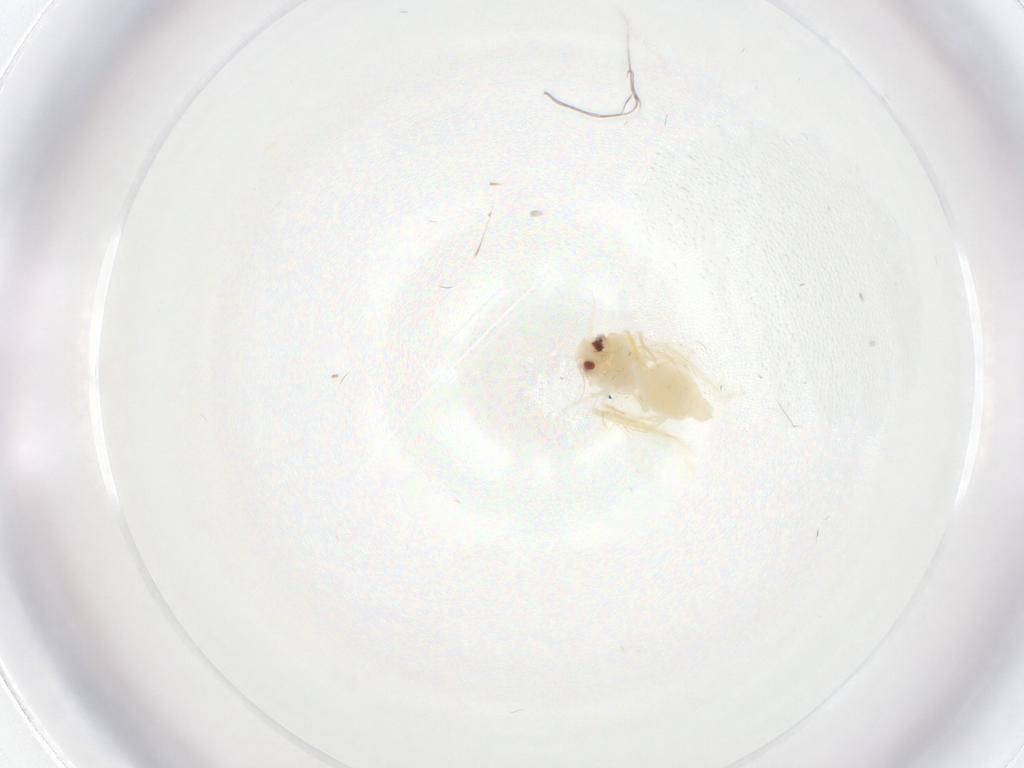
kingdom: Animalia
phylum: Arthropoda
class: Insecta
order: Hemiptera
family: Aleyrodidae
